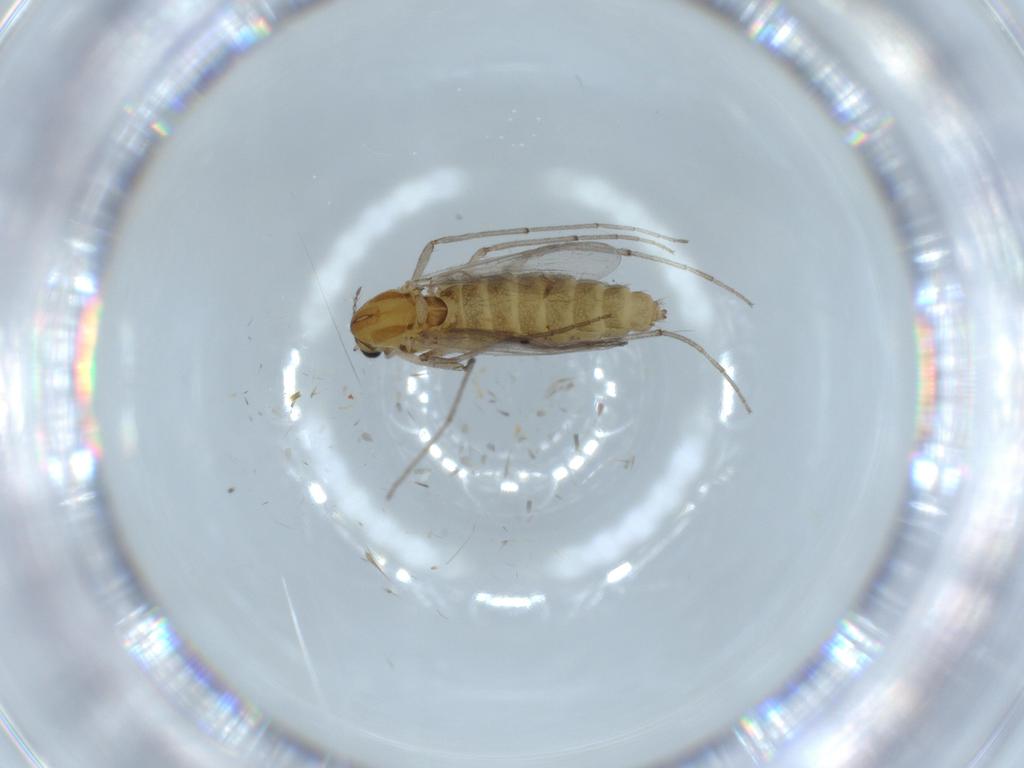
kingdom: Animalia
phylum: Arthropoda
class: Insecta
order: Diptera
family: Chironomidae
